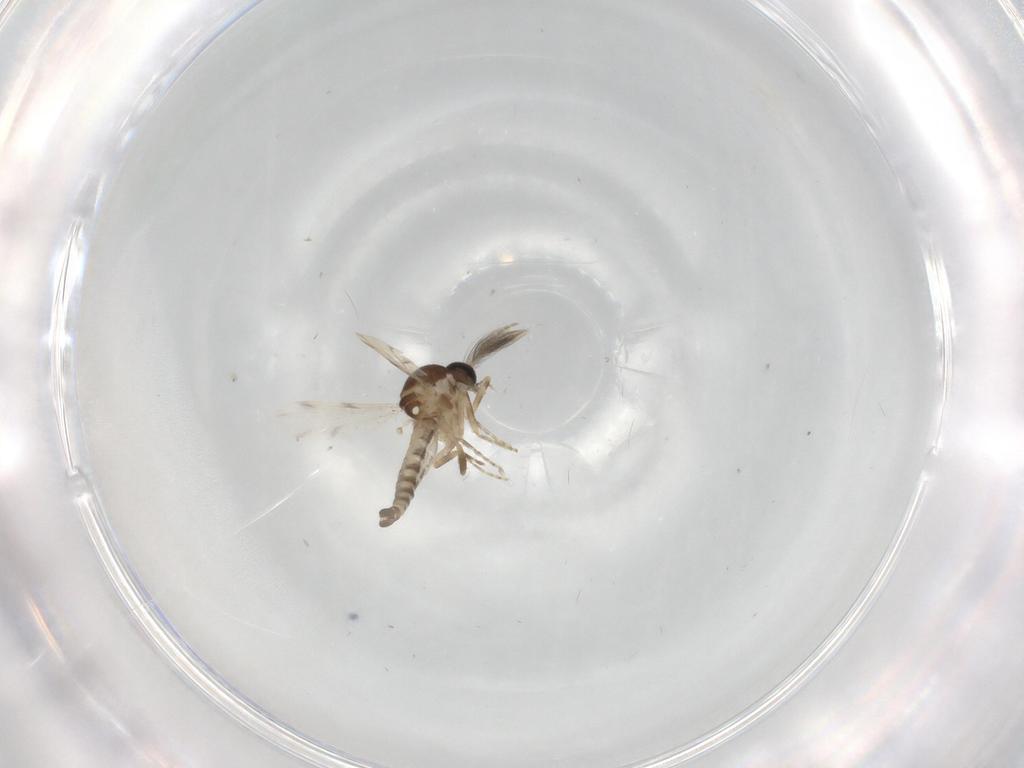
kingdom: Animalia
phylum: Arthropoda
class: Insecta
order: Diptera
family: Ceratopogonidae
